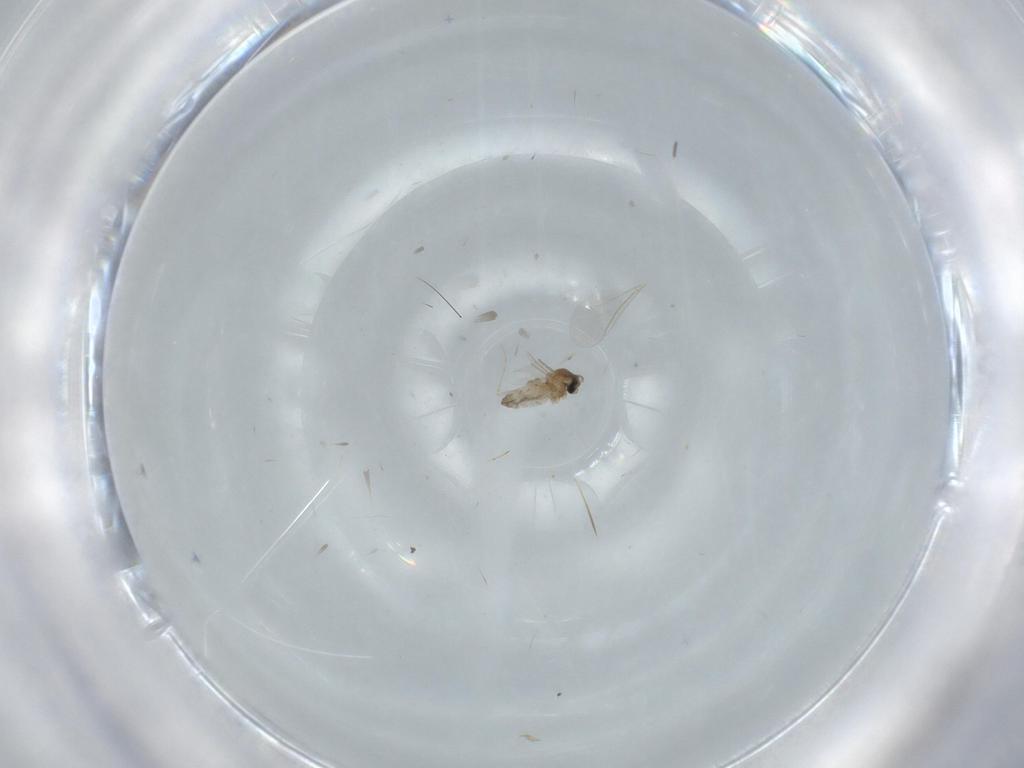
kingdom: Animalia
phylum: Arthropoda
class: Insecta
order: Diptera
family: Cecidomyiidae
